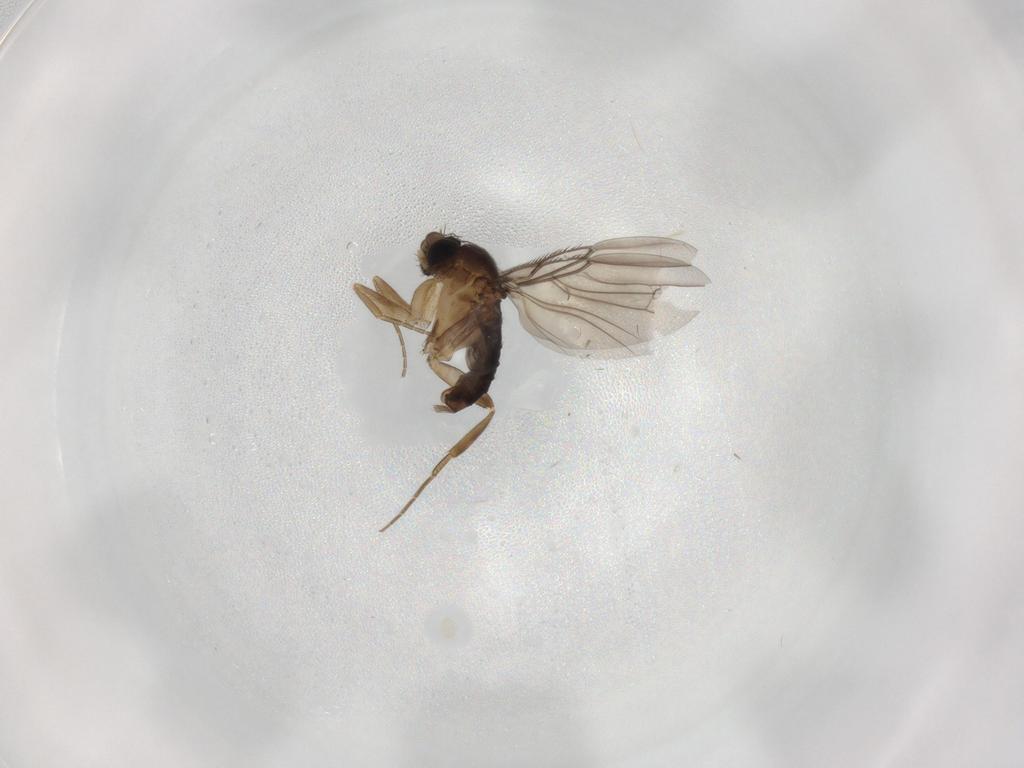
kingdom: Animalia
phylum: Arthropoda
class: Insecta
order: Diptera
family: Phoridae
